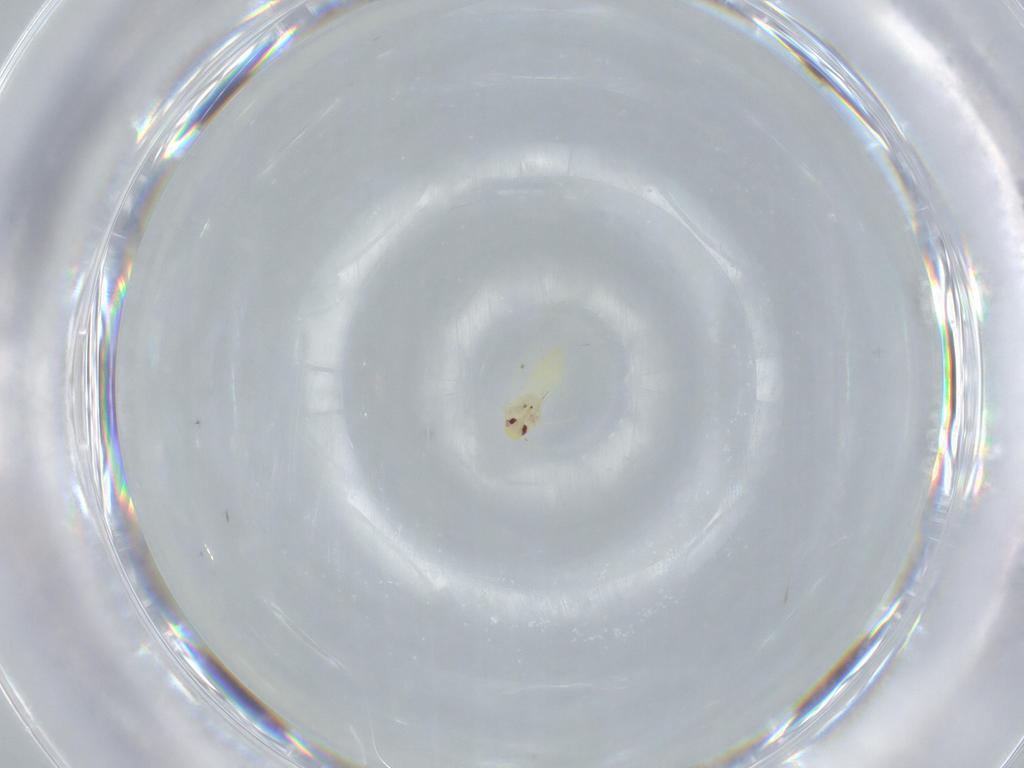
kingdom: Animalia
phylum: Arthropoda
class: Insecta
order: Hemiptera
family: Aleyrodidae
